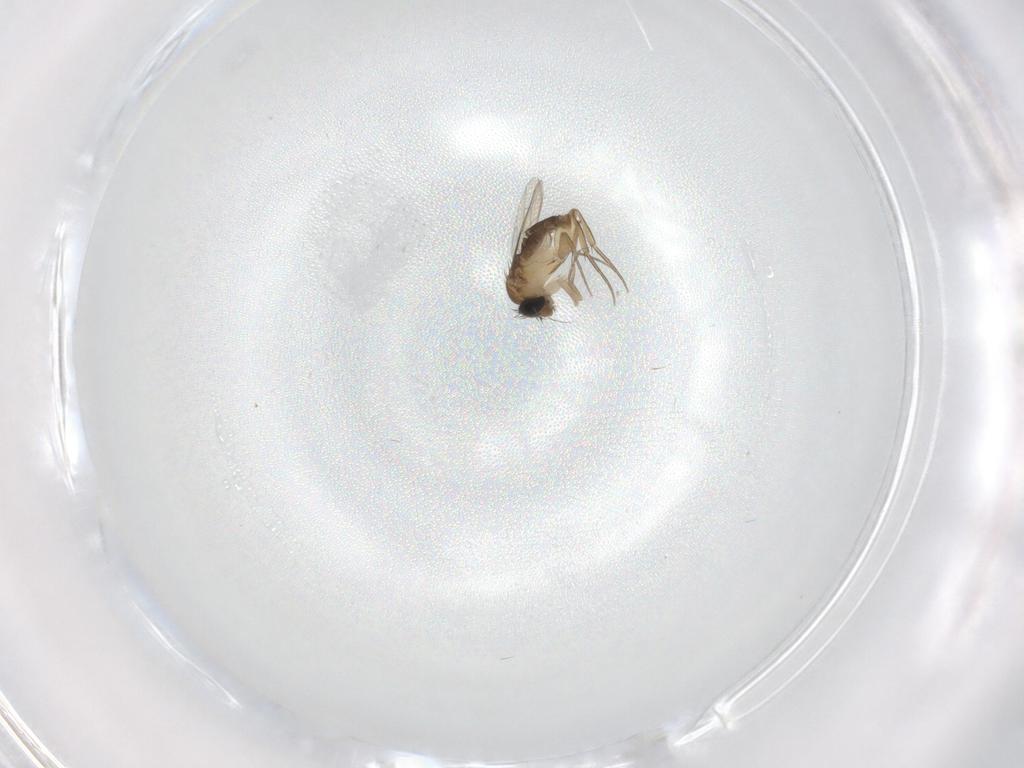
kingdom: Animalia
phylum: Arthropoda
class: Insecta
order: Diptera
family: Phoridae
